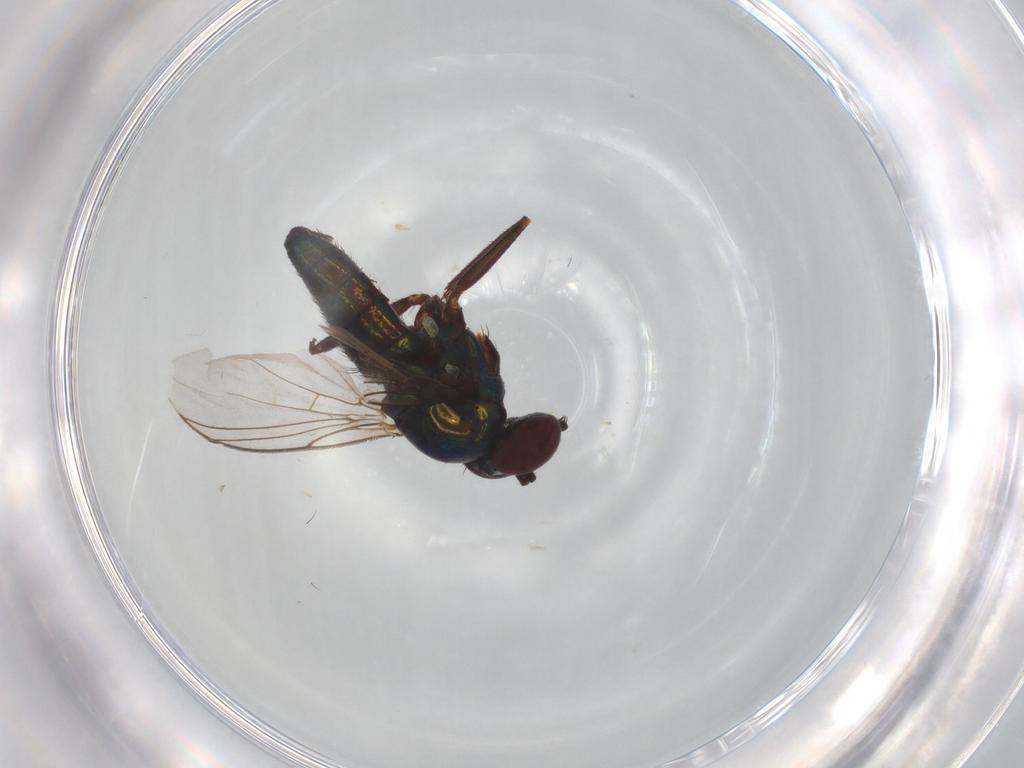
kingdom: Animalia
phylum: Arthropoda
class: Insecta
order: Diptera
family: Dolichopodidae
